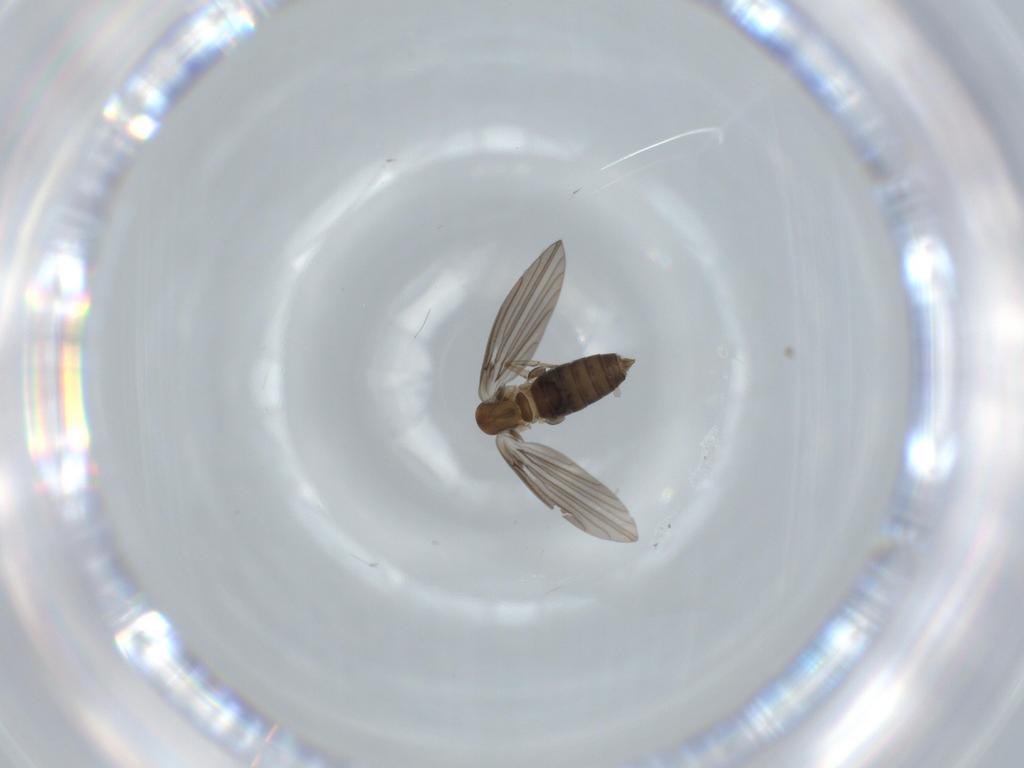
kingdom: Animalia
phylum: Arthropoda
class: Insecta
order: Diptera
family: Psychodidae
